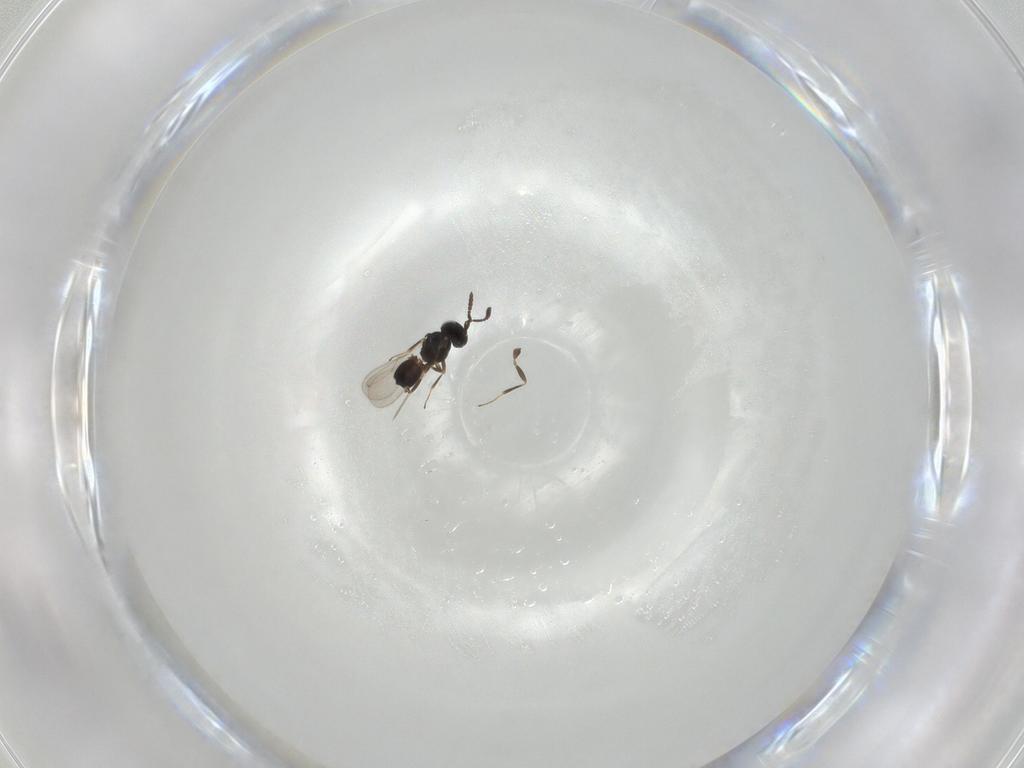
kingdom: Animalia
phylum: Arthropoda
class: Insecta
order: Hymenoptera
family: Scelionidae
